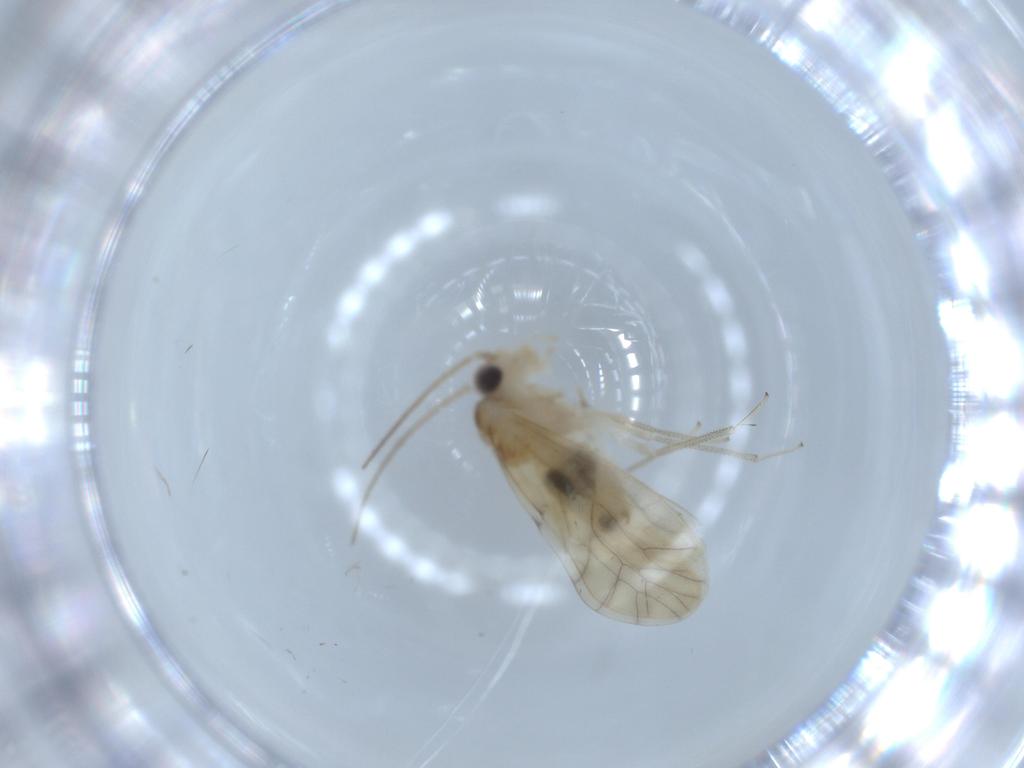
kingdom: Animalia
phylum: Arthropoda
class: Insecta
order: Psocodea
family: Caeciliusidae
